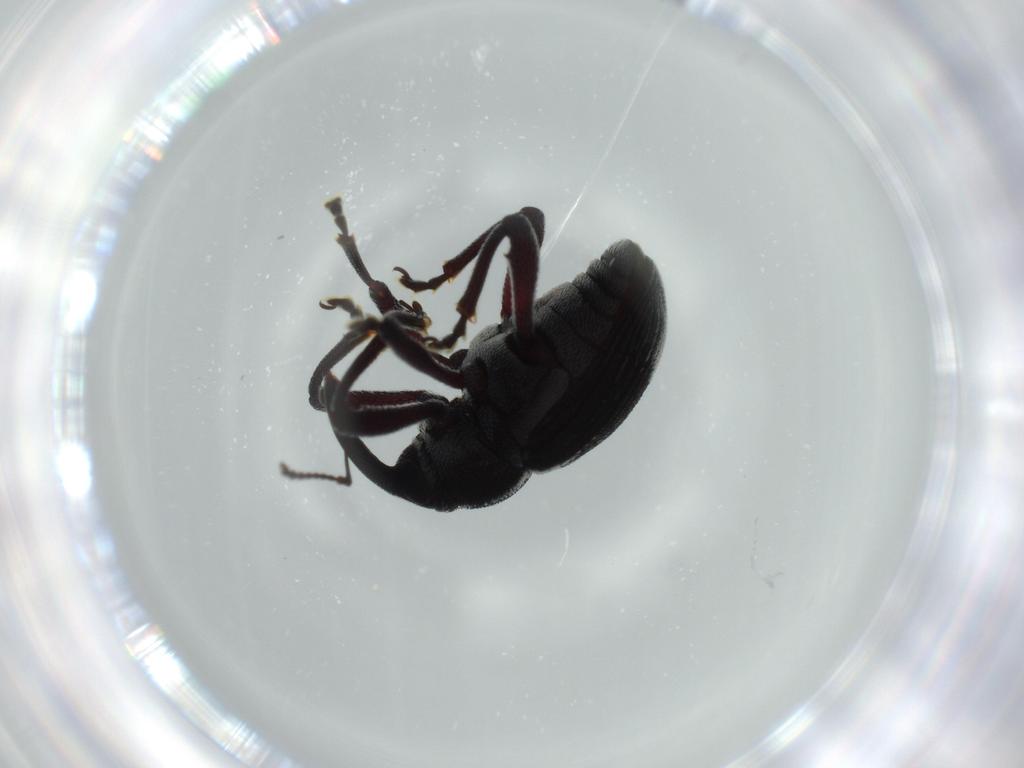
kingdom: Animalia
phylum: Arthropoda
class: Insecta
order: Coleoptera
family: Curculionidae
